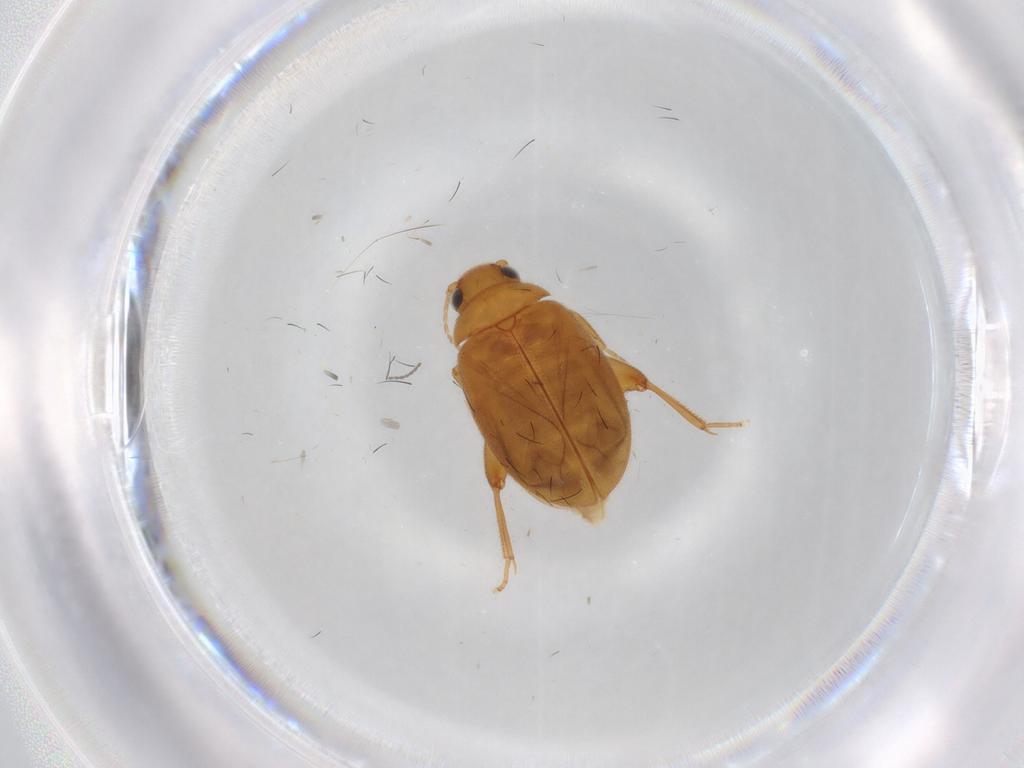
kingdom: Animalia
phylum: Arthropoda
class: Insecta
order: Coleoptera
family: Scirtidae
